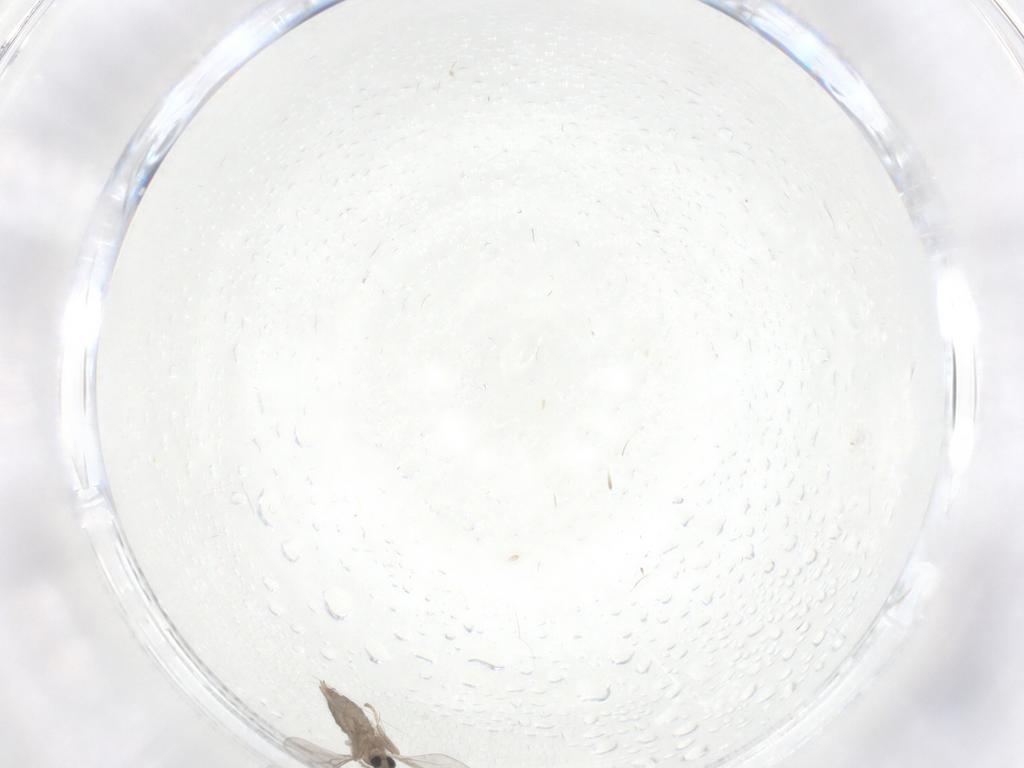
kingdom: Animalia
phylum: Arthropoda
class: Insecta
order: Diptera
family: Cecidomyiidae
